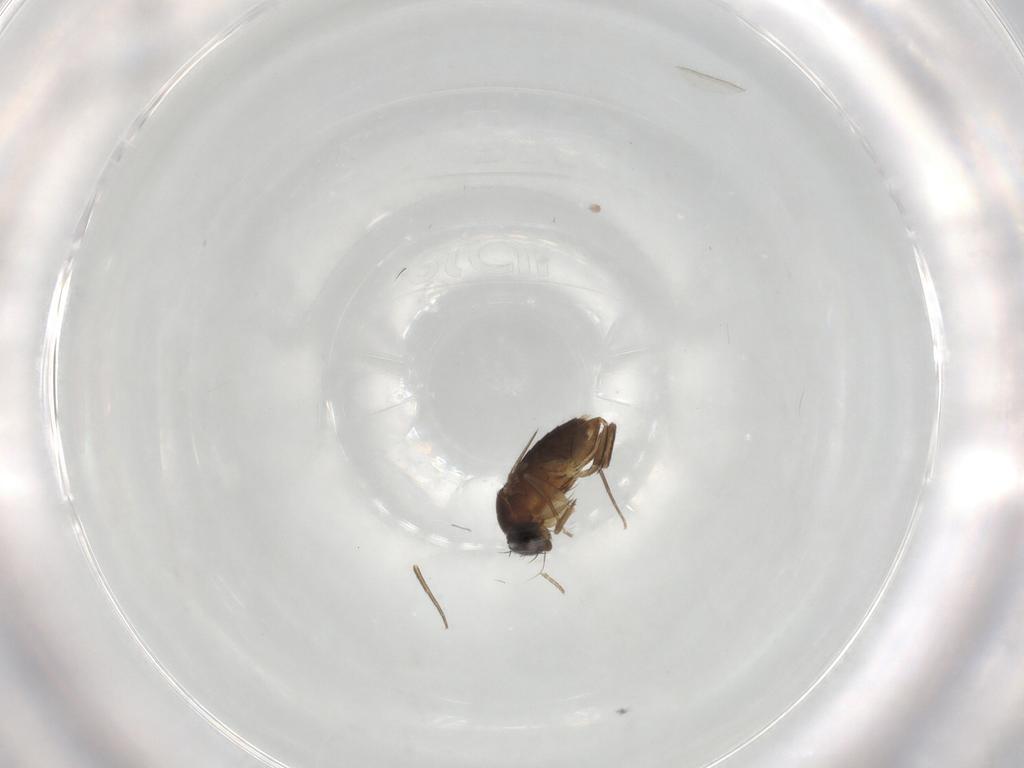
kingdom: Animalia
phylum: Arthropoda
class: Insecta
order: Diptera
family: Phoridae
